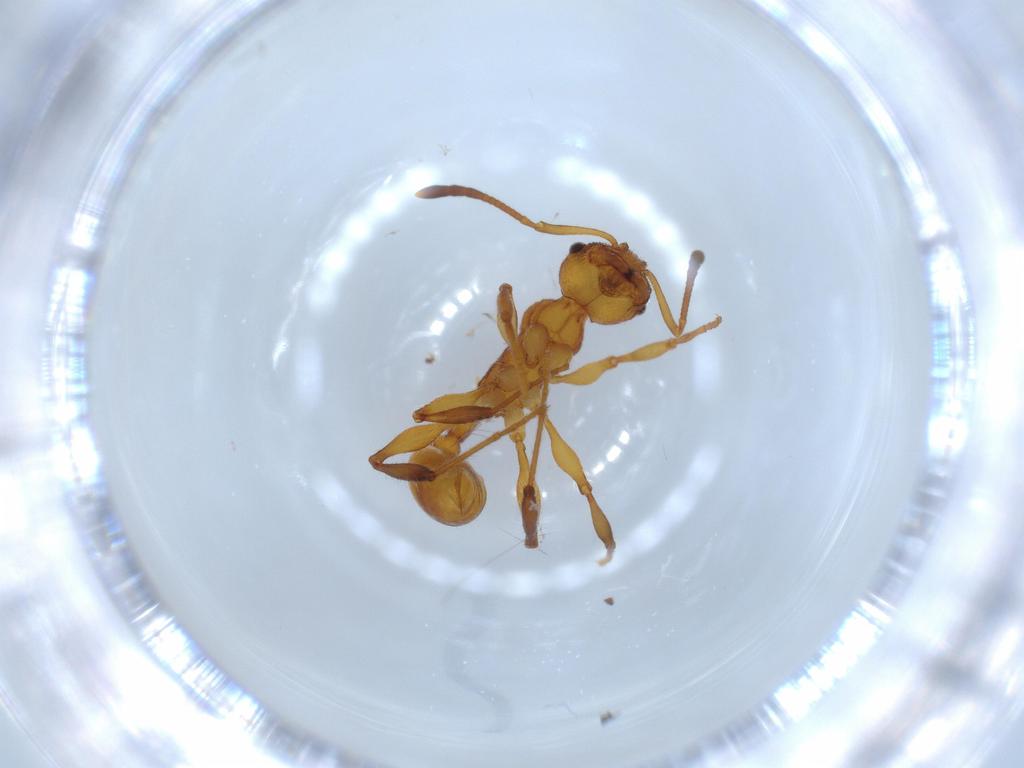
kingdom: Animalia
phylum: Arthropoda
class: Insecta
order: Hymenoptera
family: Formicidae
